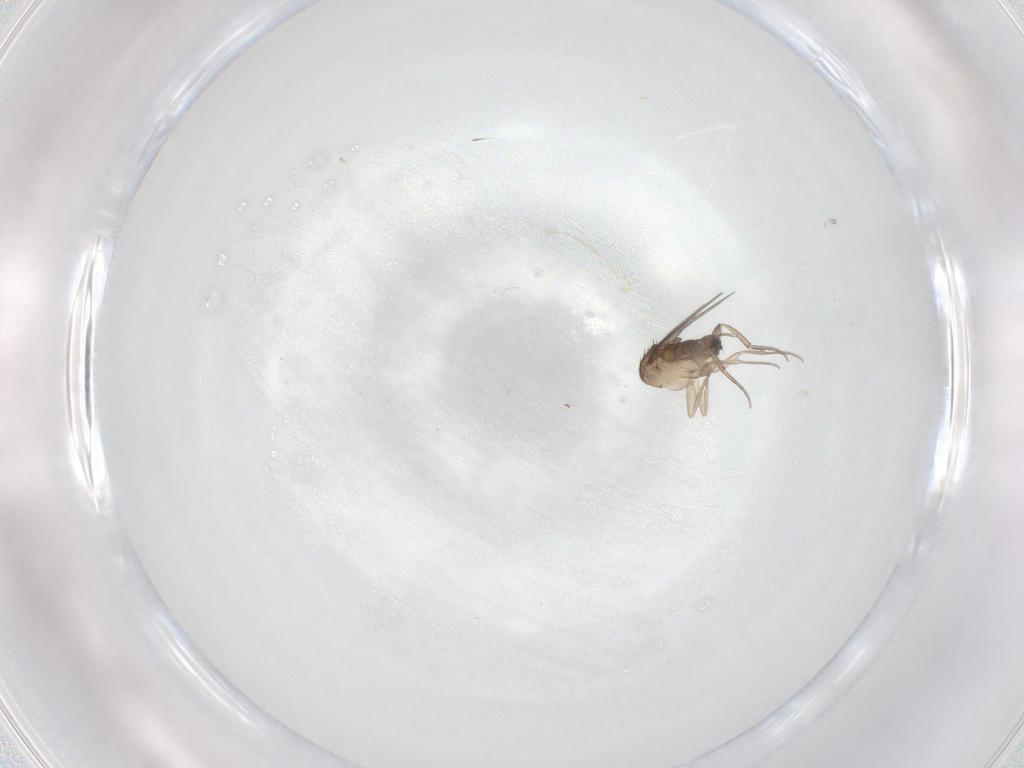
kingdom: Animalia
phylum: Arthropoda
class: Insecta
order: Diptera
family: Phoridae
